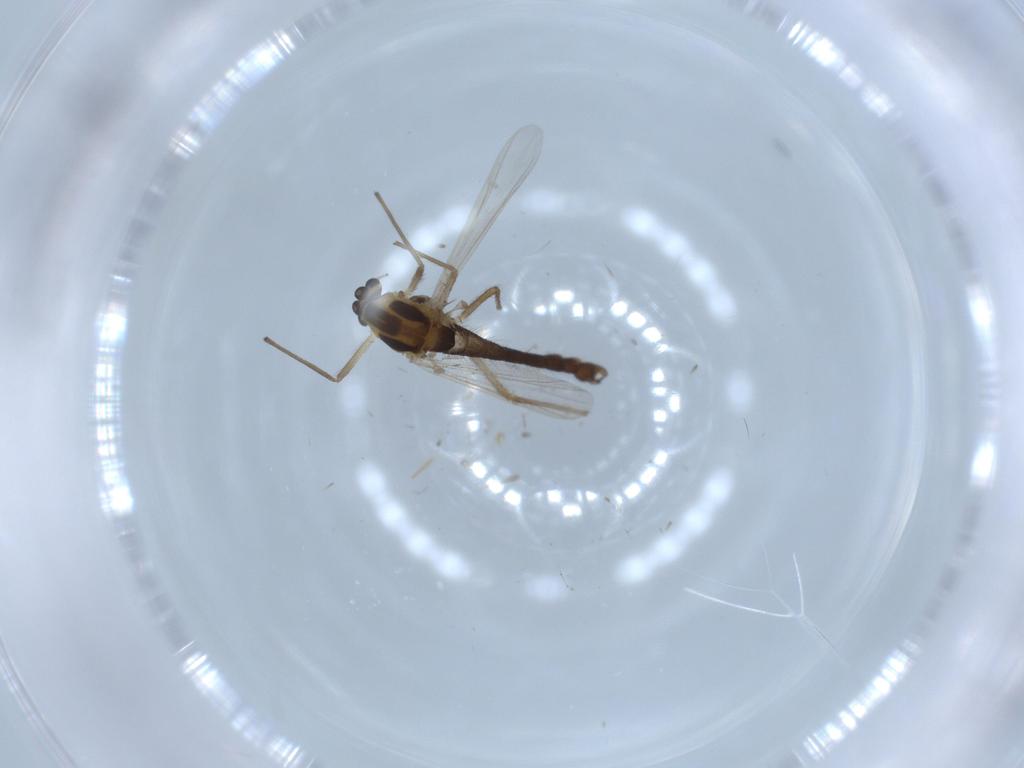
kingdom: Animalia
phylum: Arthropoda
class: Insecta
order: Diptera
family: Chironomidae
